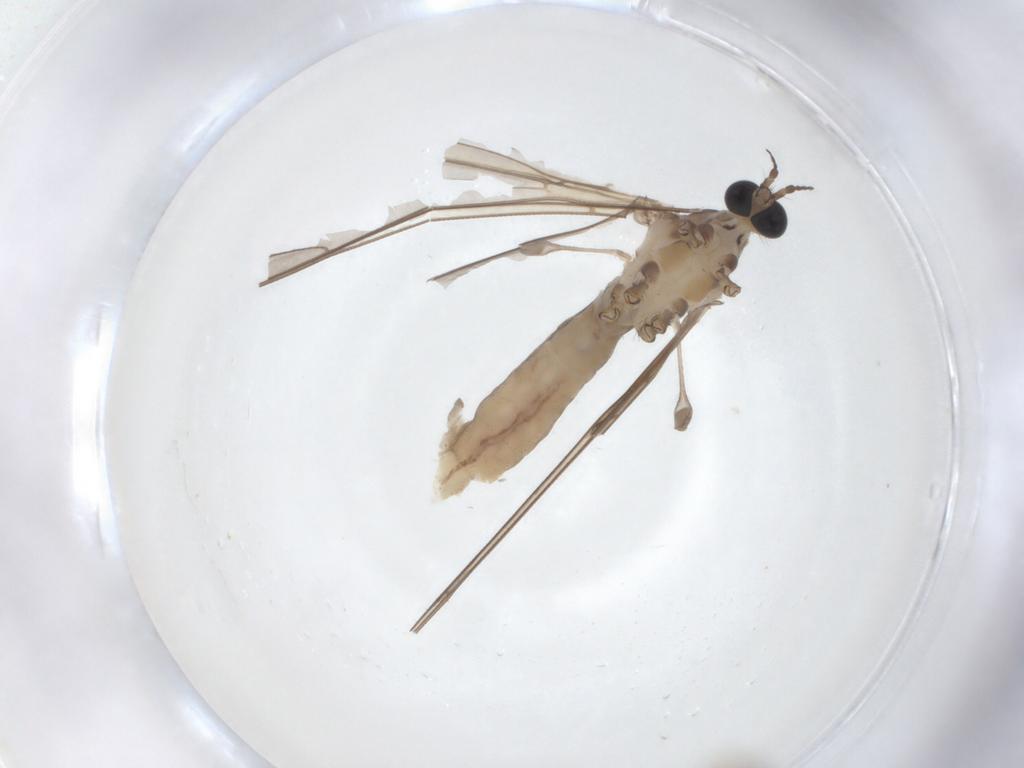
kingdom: Animalia
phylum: Arthropoda
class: Insecta
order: Diptera
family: Limoniidae
